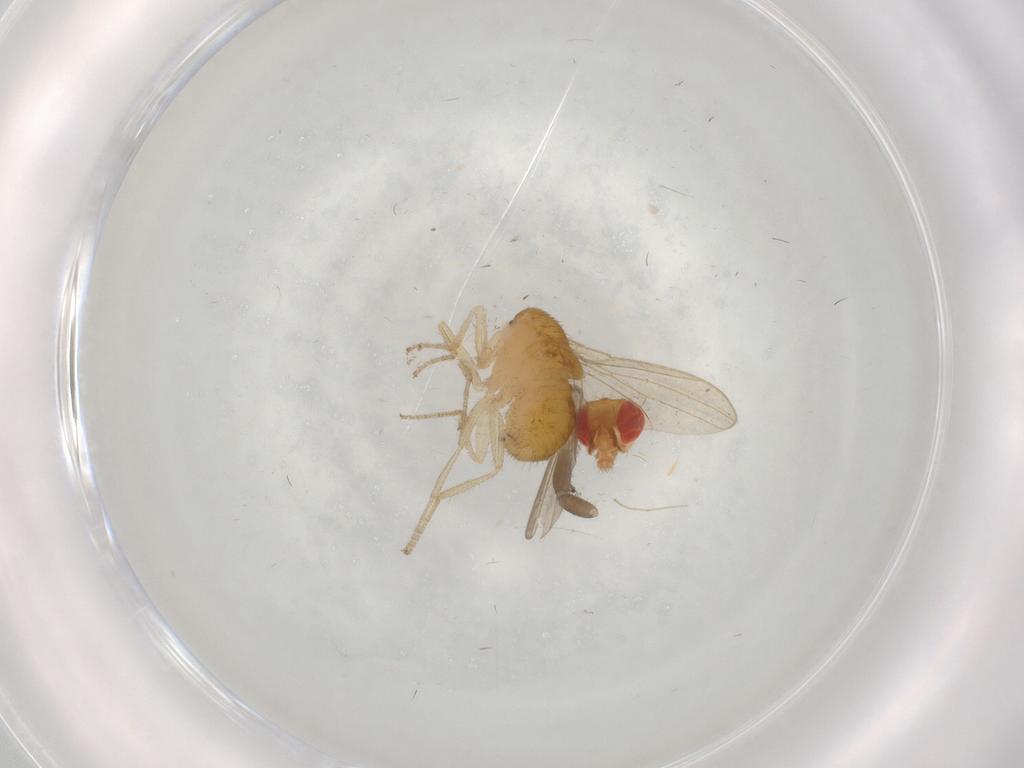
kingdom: Animalia
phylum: Arthropoda
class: Insecta
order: Diptera
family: Drosophilidae
